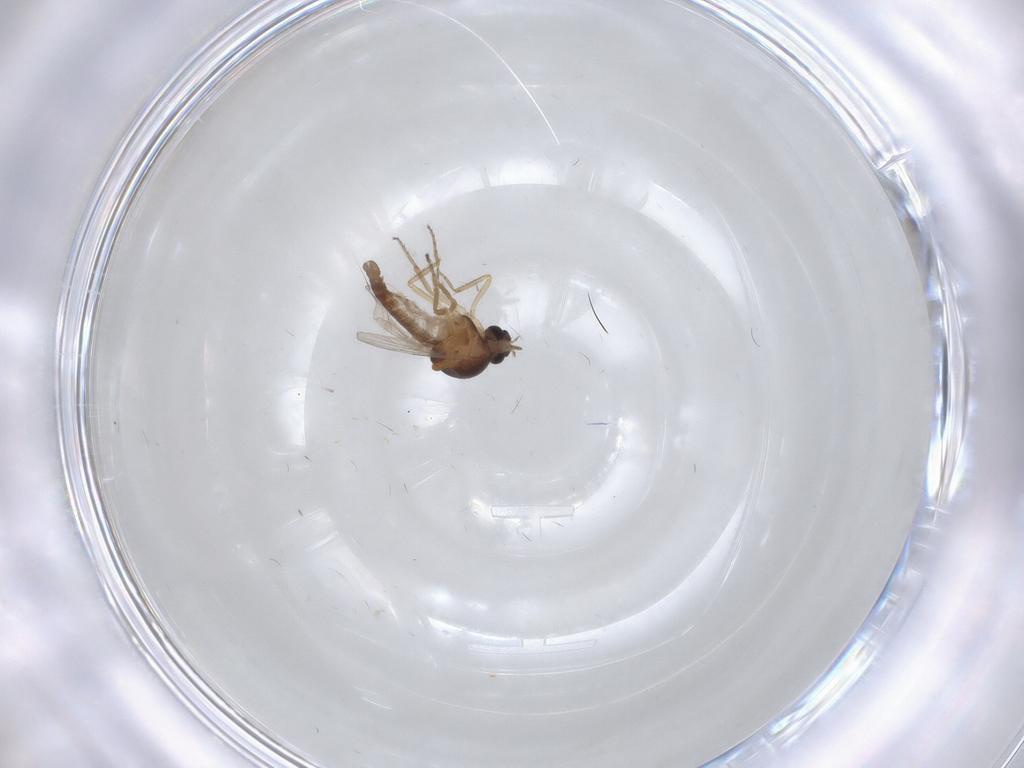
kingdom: Animalia
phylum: Arthropoda
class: Insecta
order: Diptera
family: Ceratopogonidae
